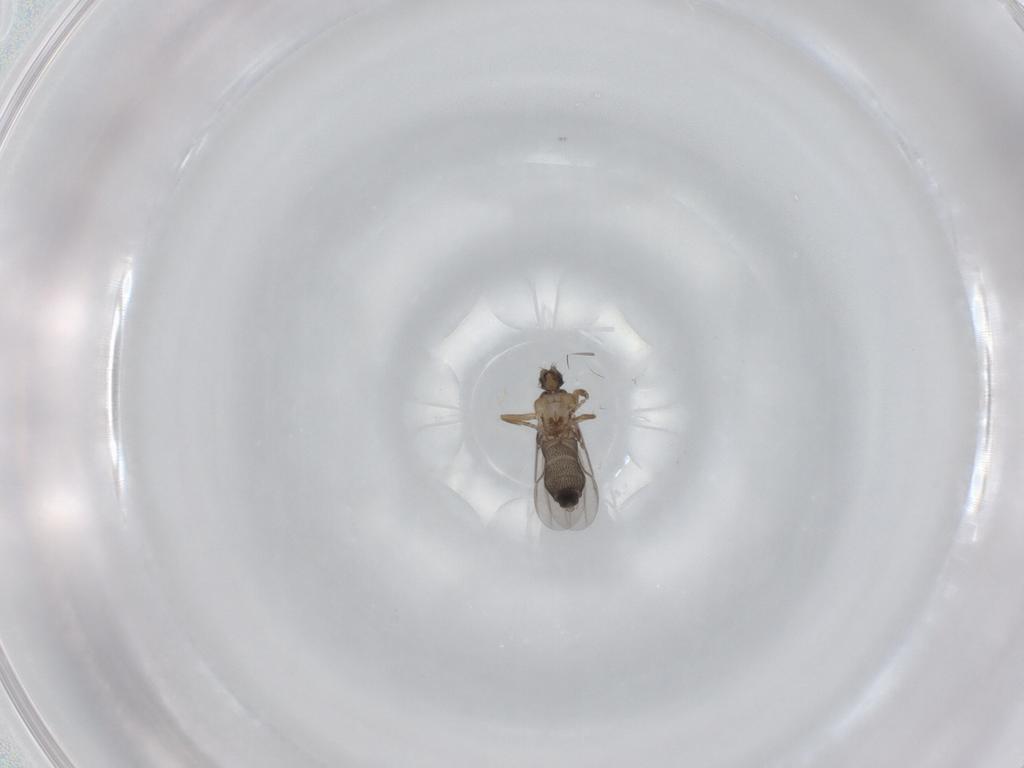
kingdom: Animalia
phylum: Arthropoda
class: Insecta
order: Diptera
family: Phoridae
